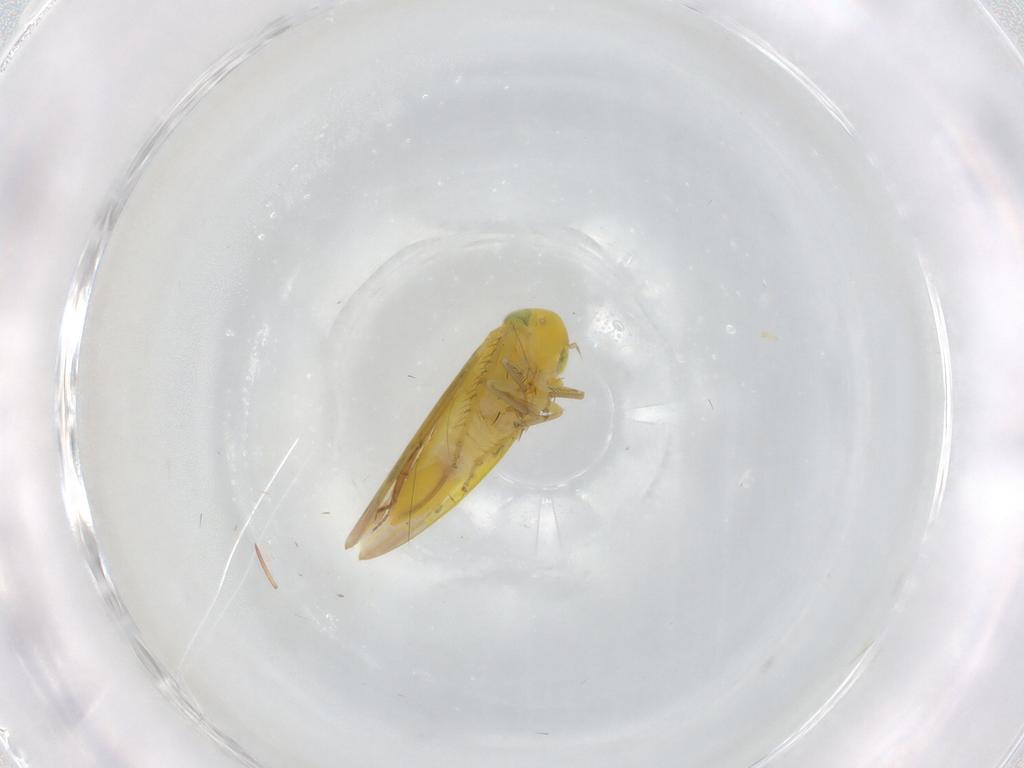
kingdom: Animalia
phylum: Arthropoda
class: Insecta
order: Hemiptera
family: Cicadellidae
